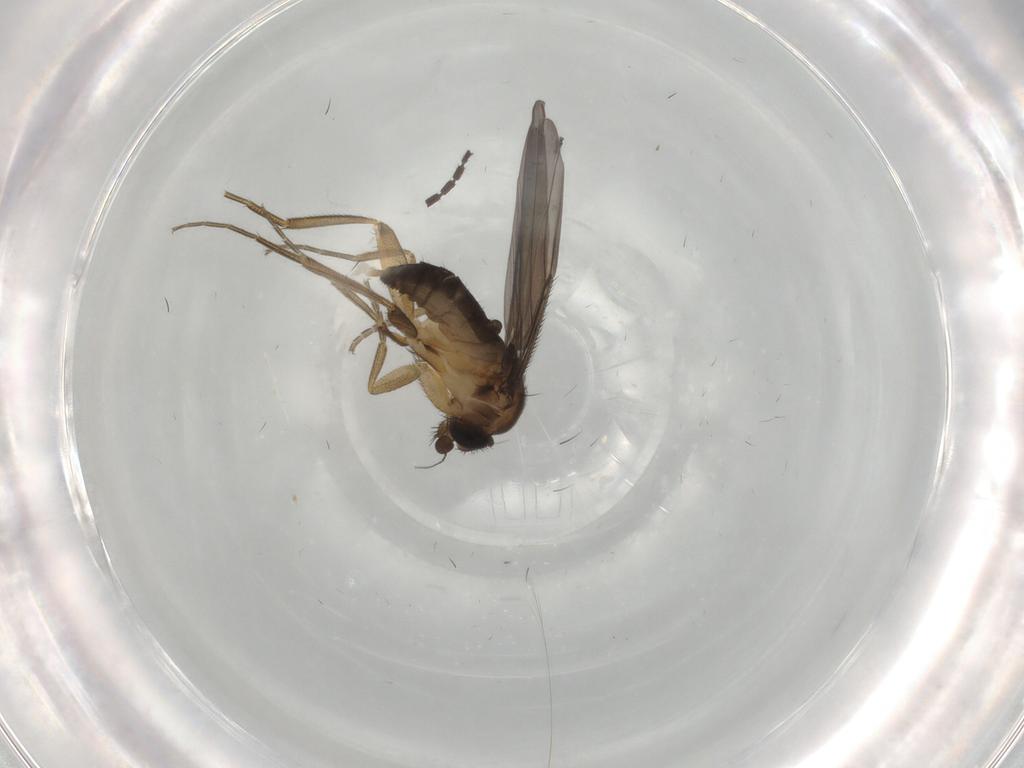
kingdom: Animalia
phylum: Arthropoda
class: Insecta
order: Diptera
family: Phoridae
